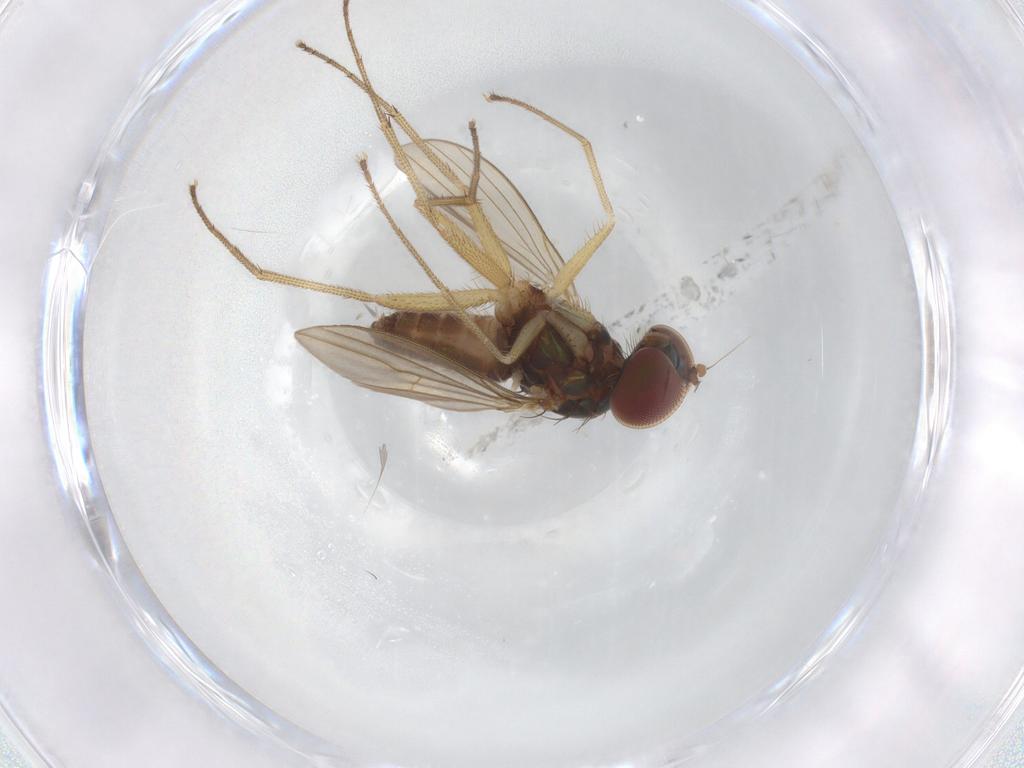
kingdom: Animalia
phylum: Arthropoda
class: Insecta
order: Diptera
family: Dolichopodidae
